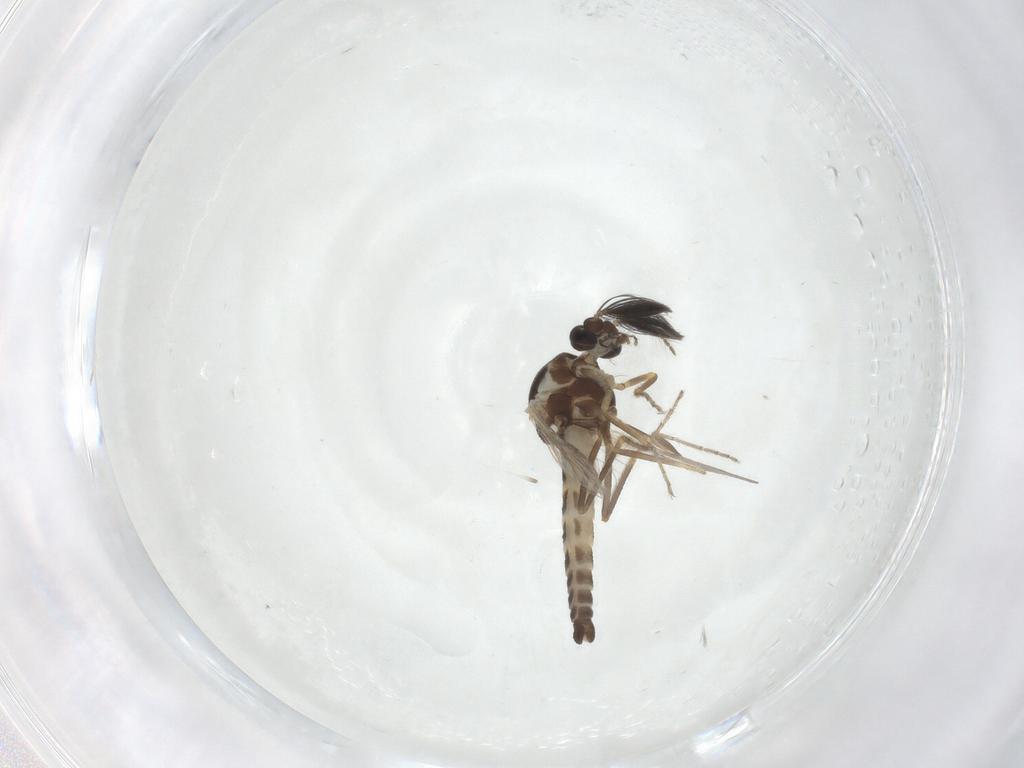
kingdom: Animalia
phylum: Arthropoda
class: Insecta
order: Diptera
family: Ceratopogonidae
